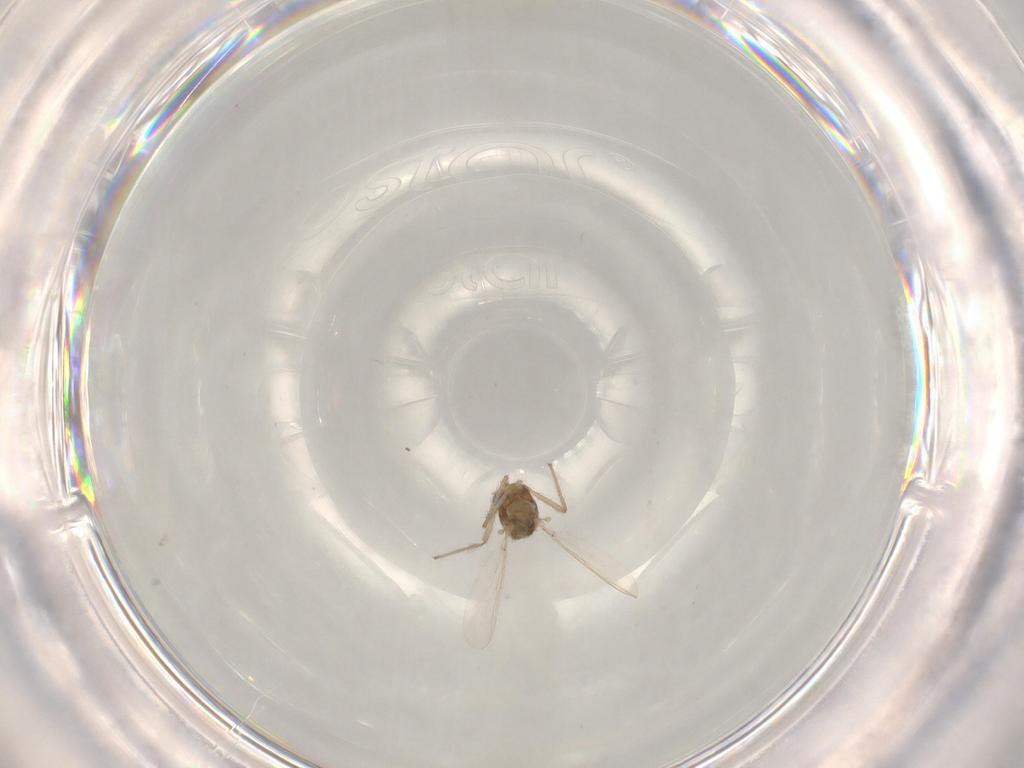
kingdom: Animalia
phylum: Arthropoda
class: Insecta
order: Diptera
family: Chironomidae
